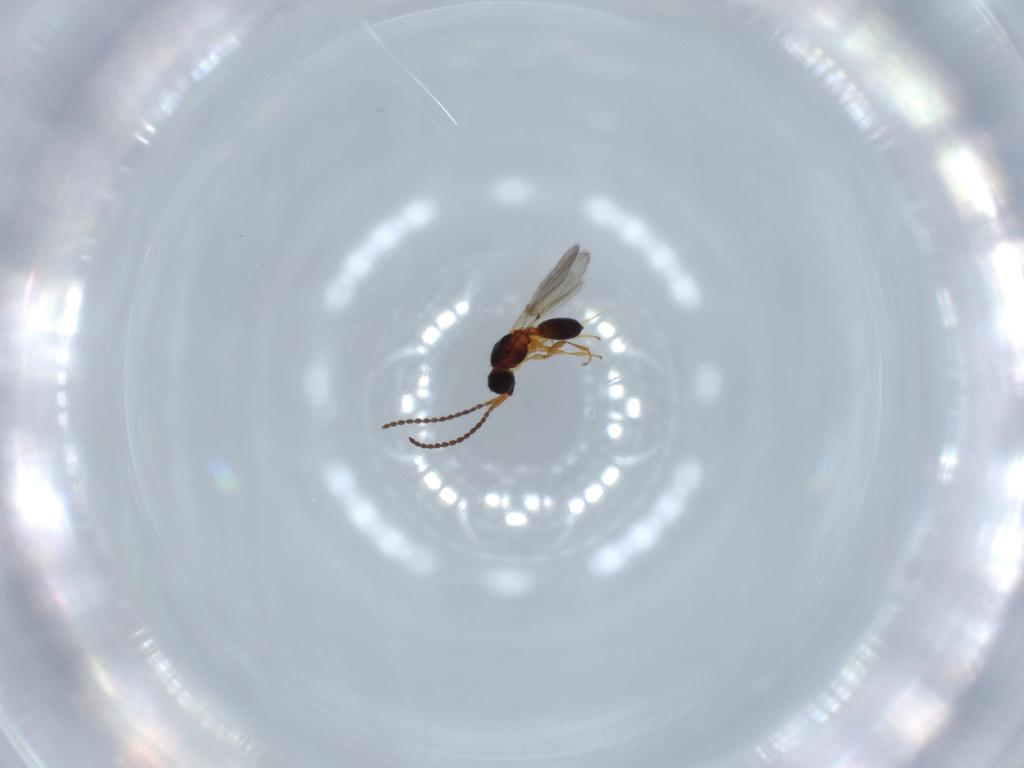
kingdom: Animalia
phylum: Arthropoda
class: Insecta
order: Hymenoptera
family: Diapriidae
